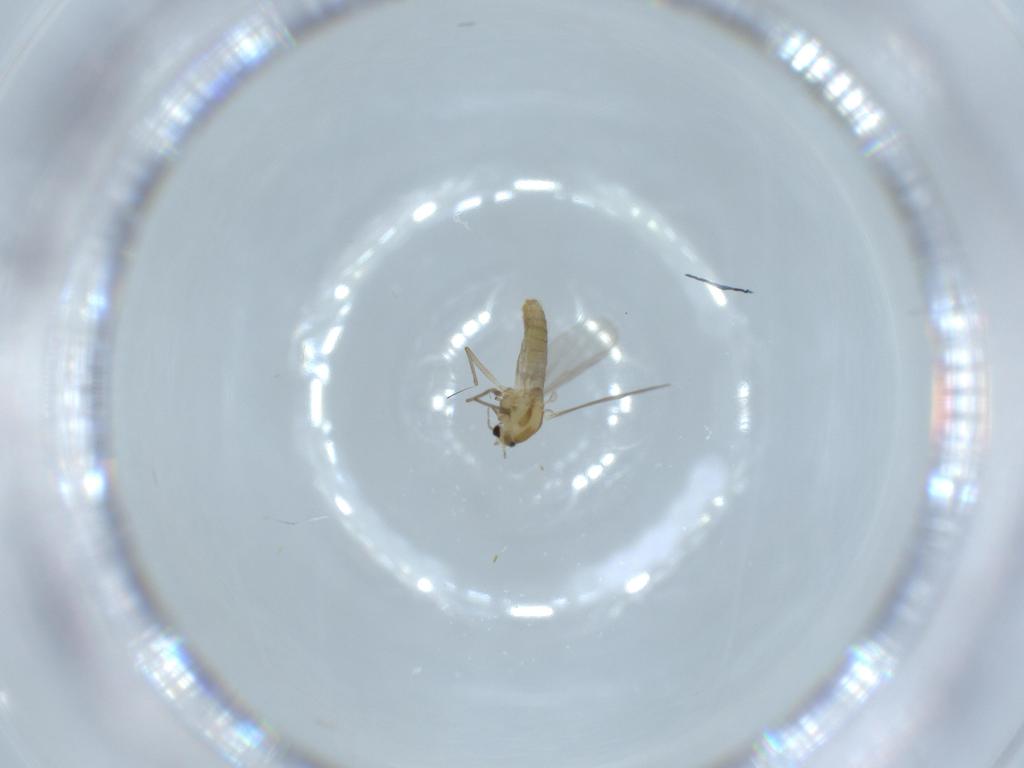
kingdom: Animalia
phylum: Arthropoda
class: Insecta
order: Diptera
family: Chironomidae
